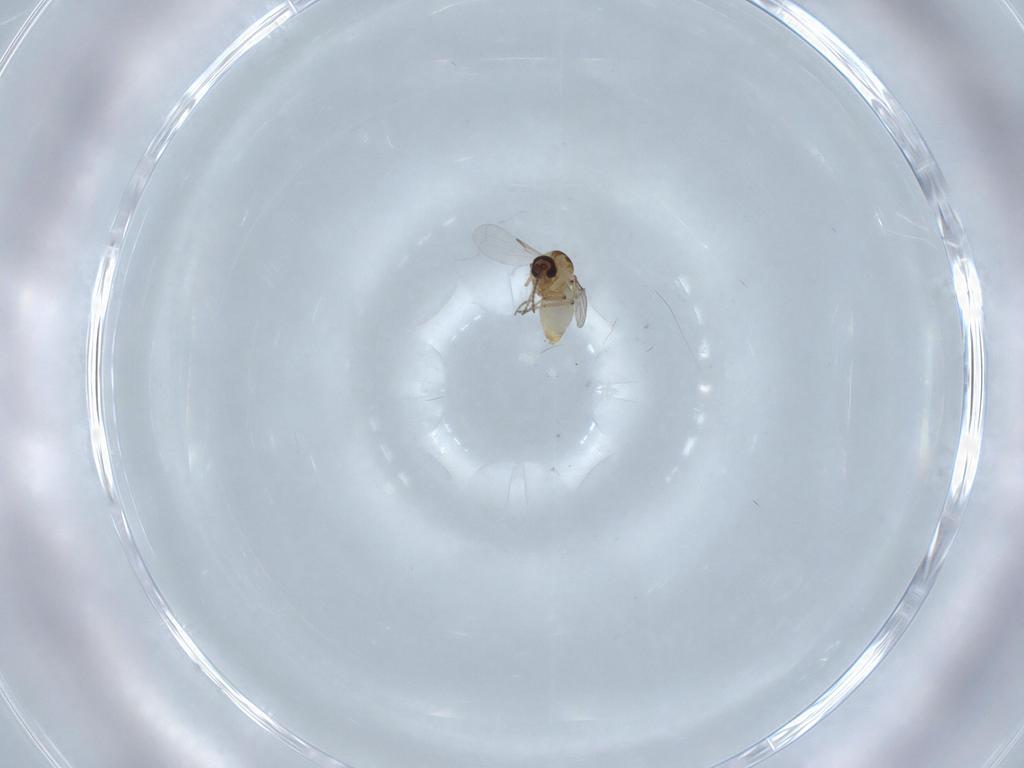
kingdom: Animalia
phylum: Arthropoda
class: Insecta
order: Diptera
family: Ceratopogonidae
